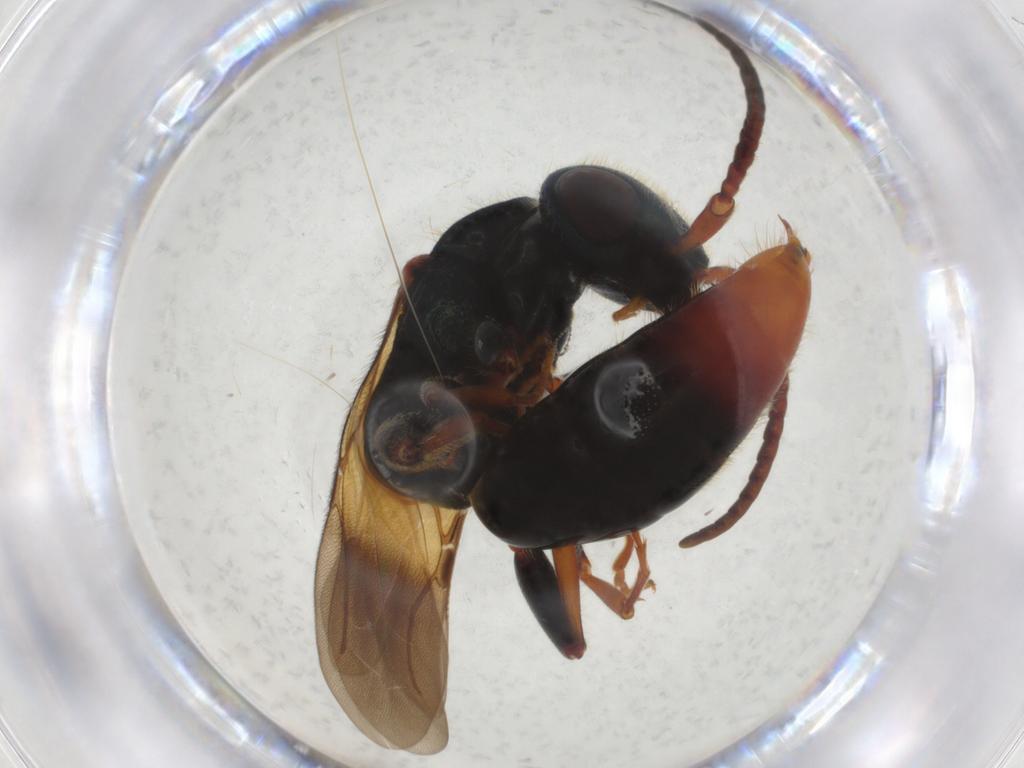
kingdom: Animalia
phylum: Arthropoda
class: Insecta
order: Hymenoptera
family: Bethylidae
